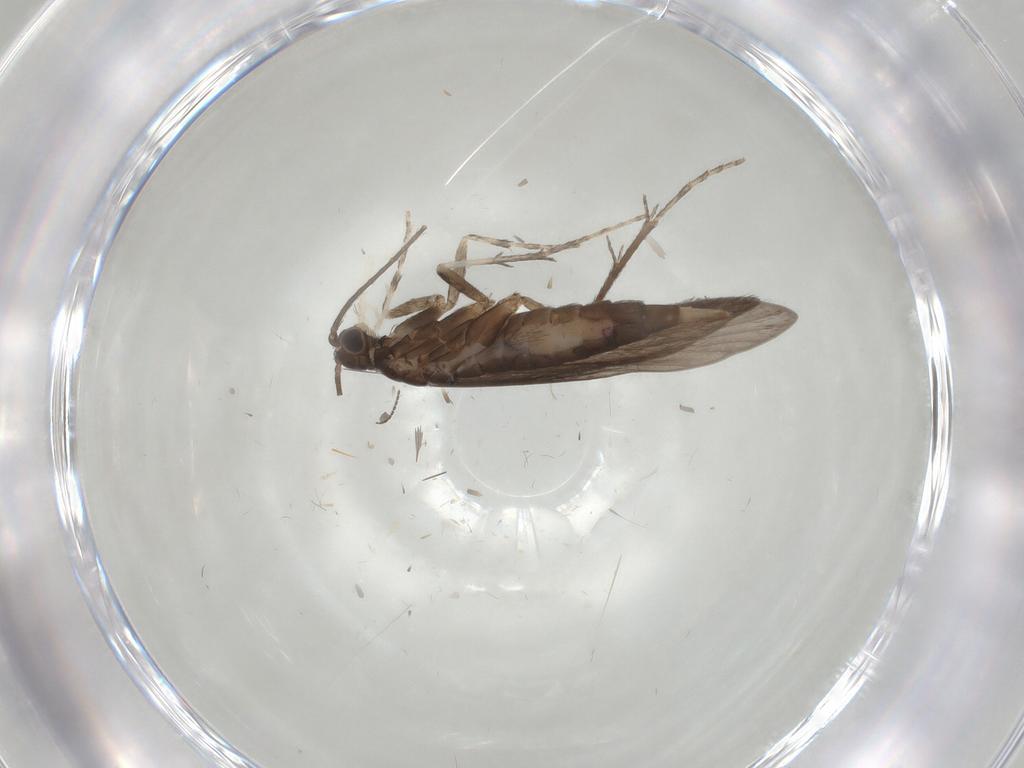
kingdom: Animalia
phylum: Arthropoda
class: Insecta
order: Trichoptera
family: Xiphocentronidae
